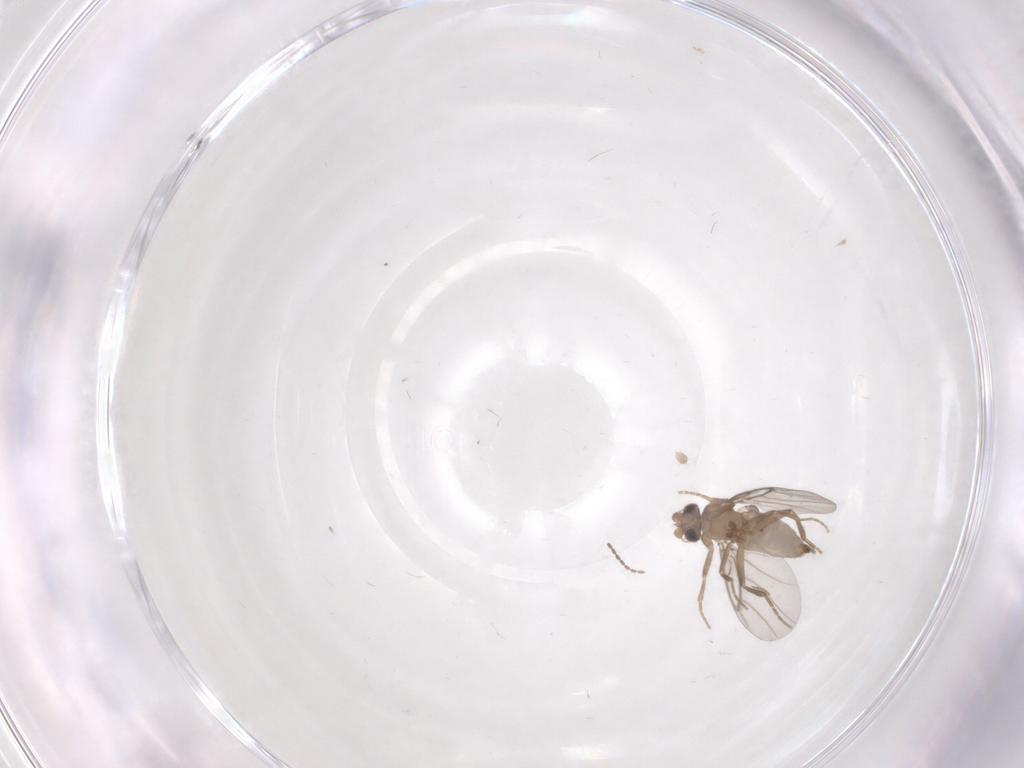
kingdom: Animalia
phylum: Arthropoda
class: Insecta
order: Diptera
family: Cecidomyiidae
